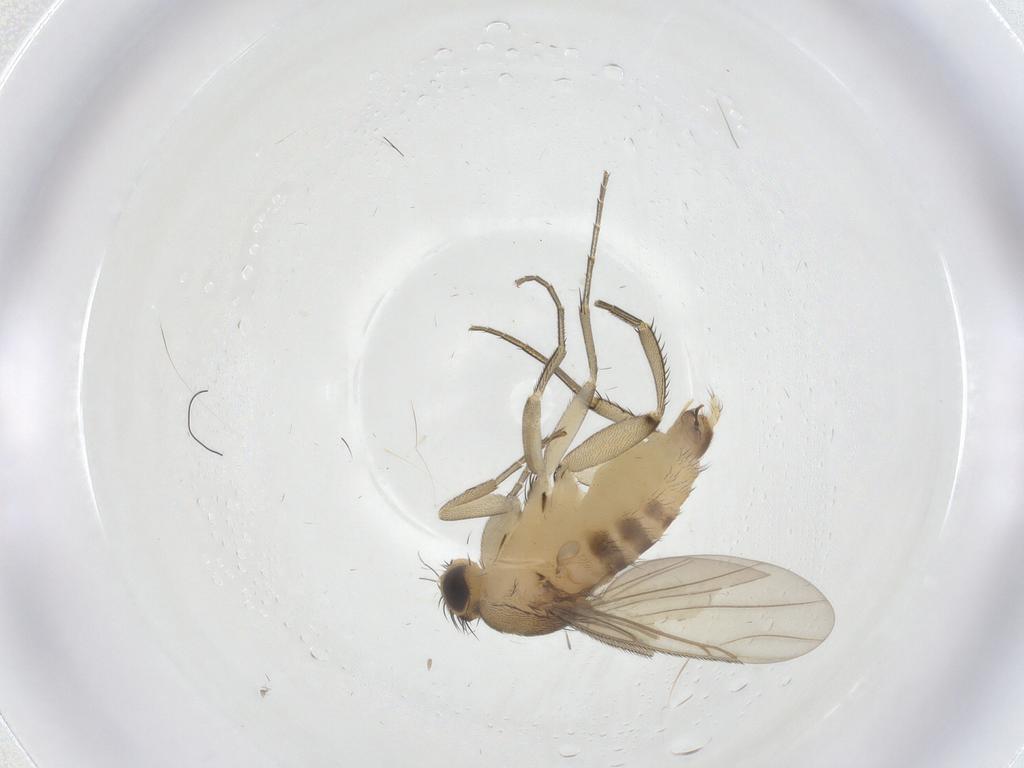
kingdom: Animalia
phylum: Arthropoda
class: Insecta
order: Diptera
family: Phoridae
